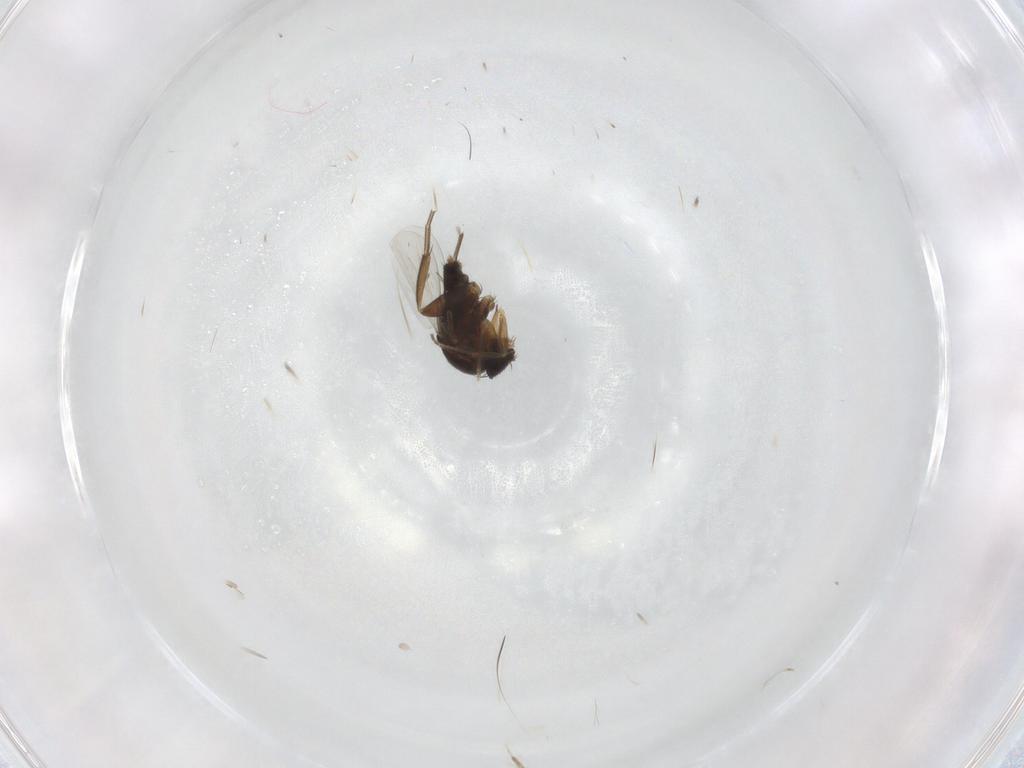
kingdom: Animalia
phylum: Arthropoda
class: Insecta
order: Diptera
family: Phoridae
